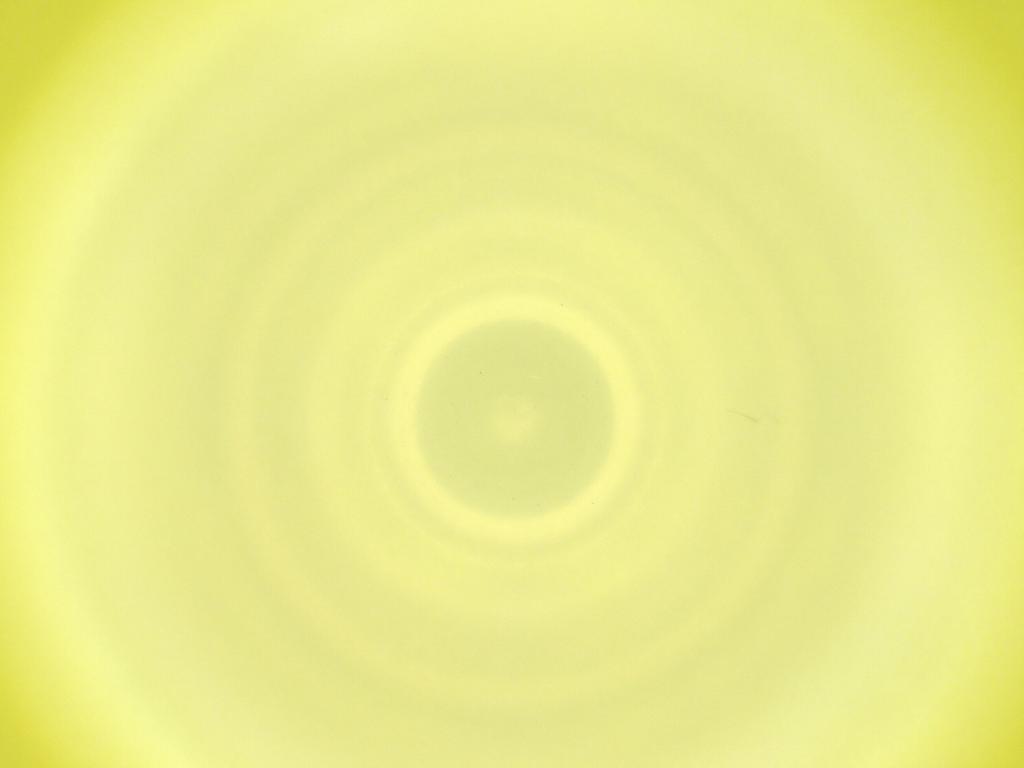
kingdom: Animalia
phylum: Arthropoda
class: Insecta
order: Diptera
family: Cecidomyiidae
